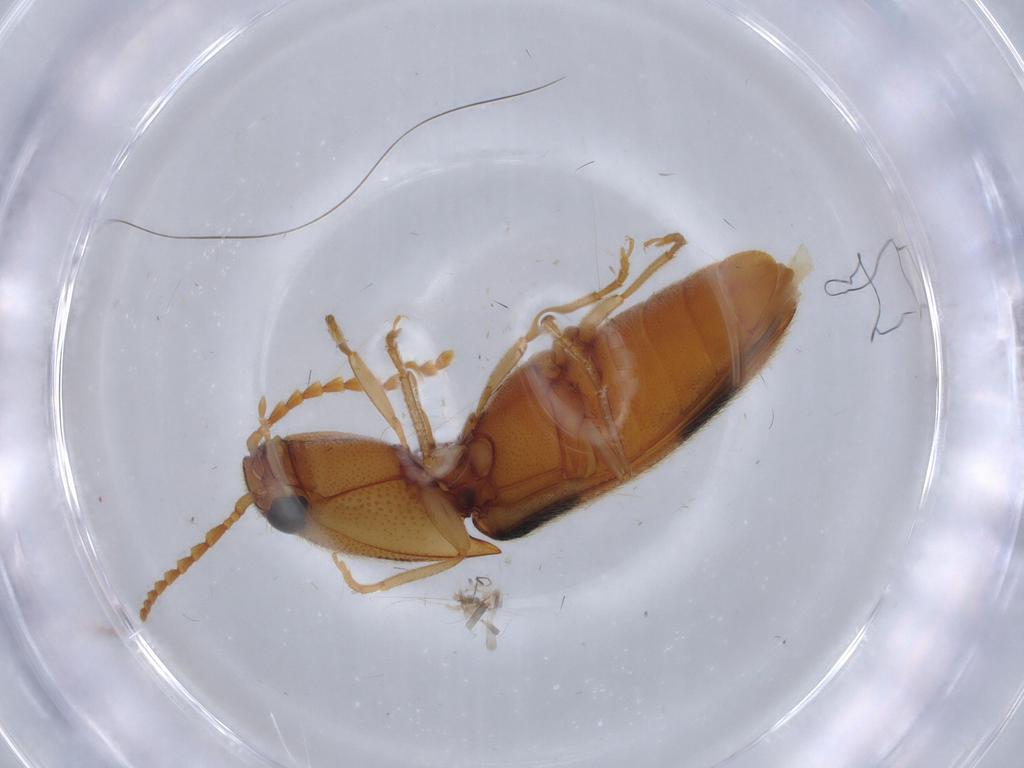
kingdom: Animalia
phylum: Arthropoda
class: Insecta
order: Coleoptera
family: Elateridae
